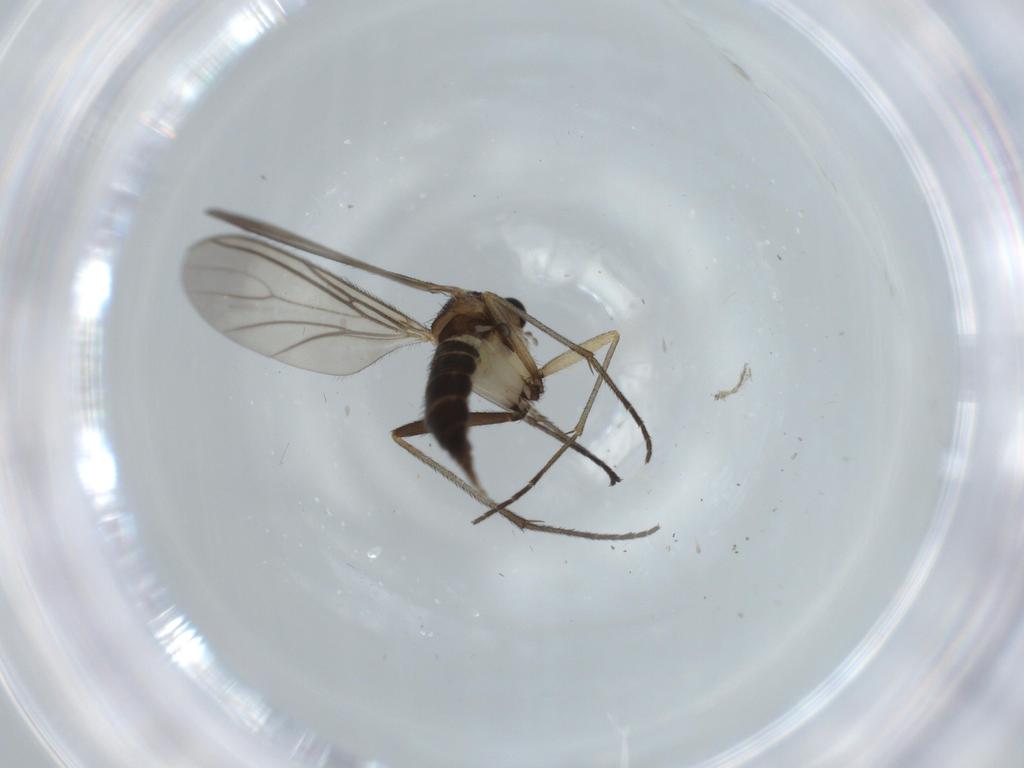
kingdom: Animalia
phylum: Arthropoda
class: Insecta
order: Diptera
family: Sciaridae
